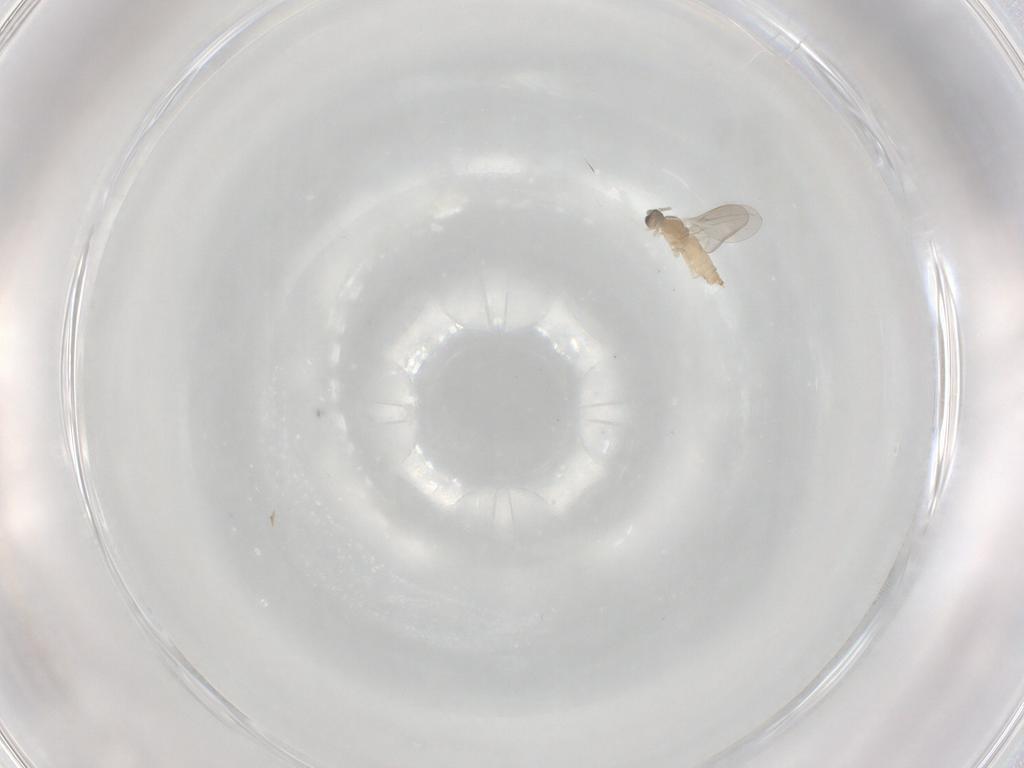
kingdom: Animalia
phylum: Arthropoda
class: Insecta
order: Diptera
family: Cecidomyiidae
